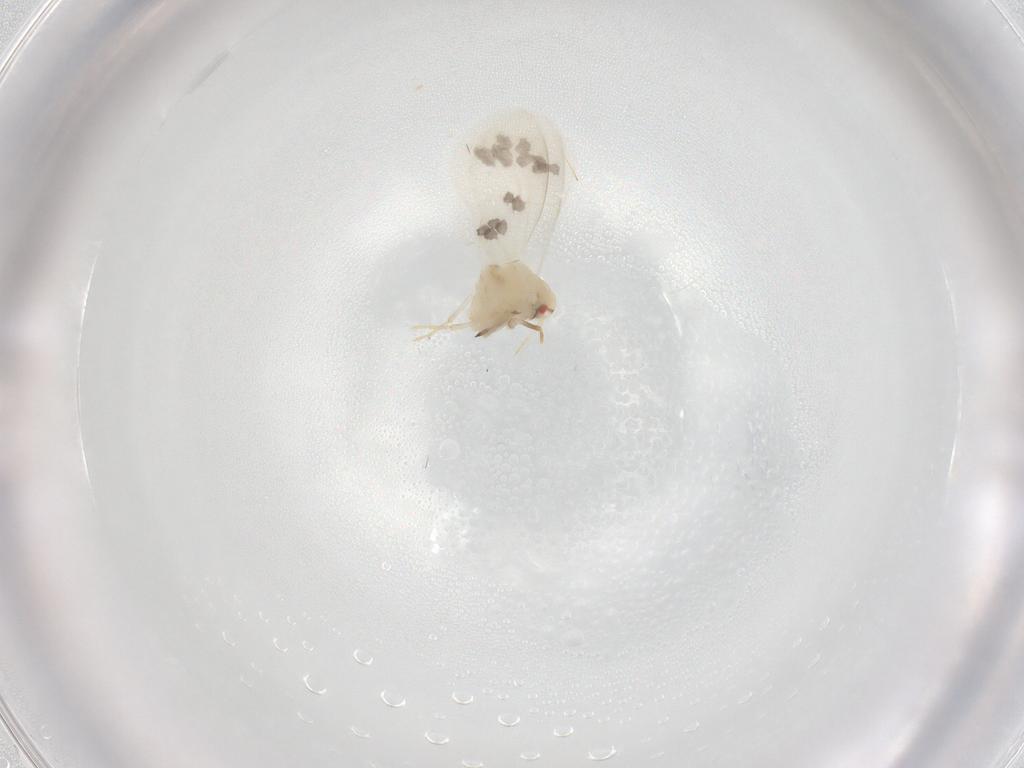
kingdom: Animalia
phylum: Arthropoda
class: Insecta
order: Hemiptera
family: Aleyrodidae
